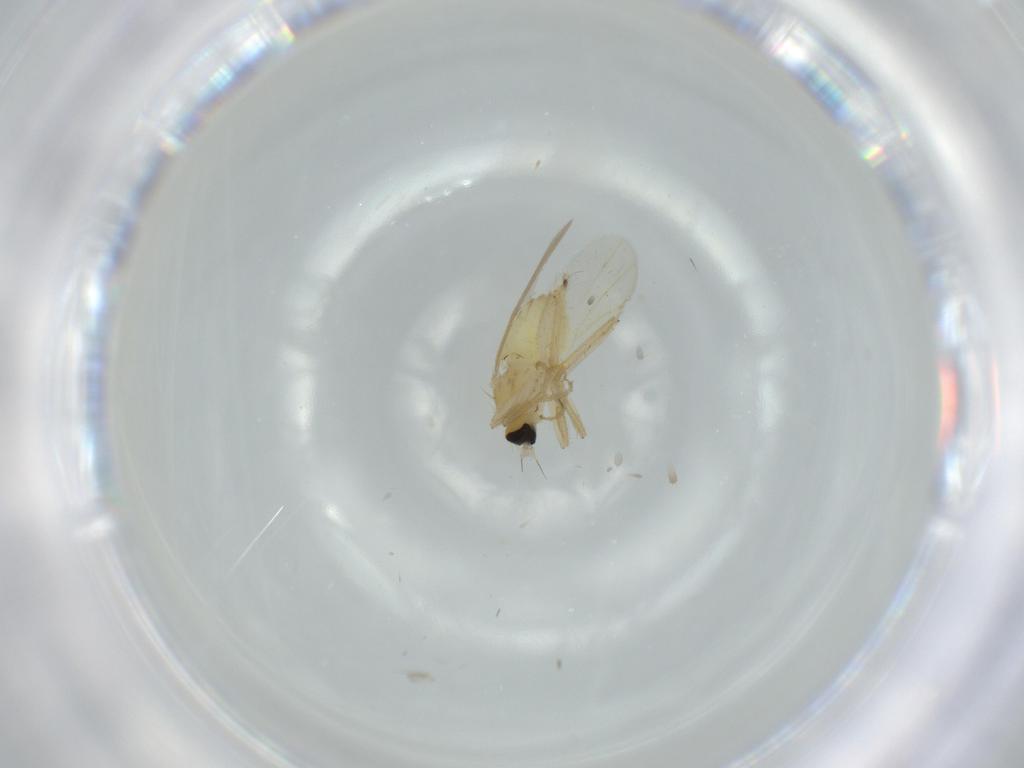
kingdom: Animalia
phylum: Arthropoda
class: Insecta
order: Diptera
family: Hybotidae
